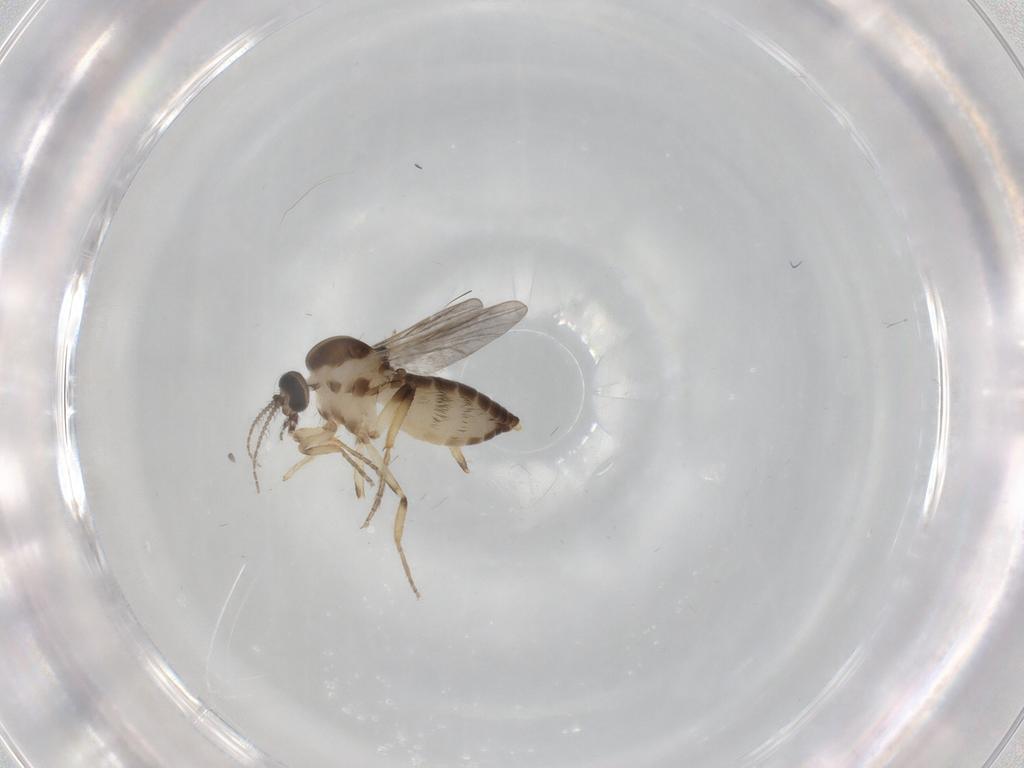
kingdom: Animalia
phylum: Arthropoda
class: Insecta
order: Diptera
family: Ceratopogonidae
